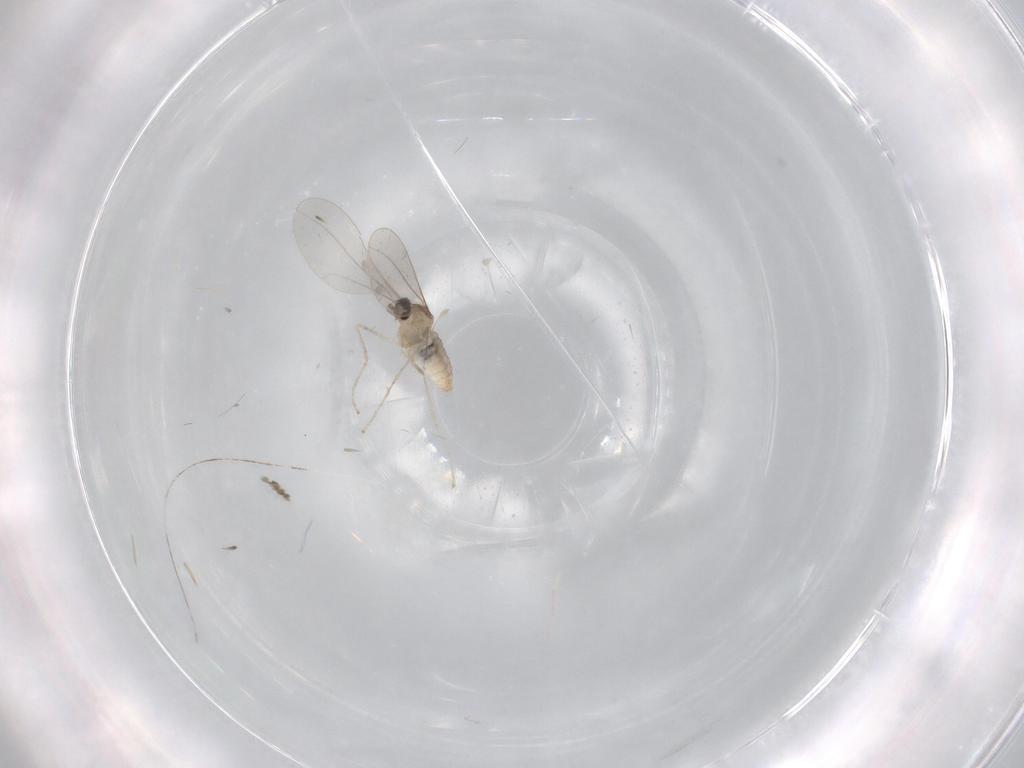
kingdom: Animalia
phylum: Arthropoda
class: Insecta
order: Diptera
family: Cecidomyiidae
